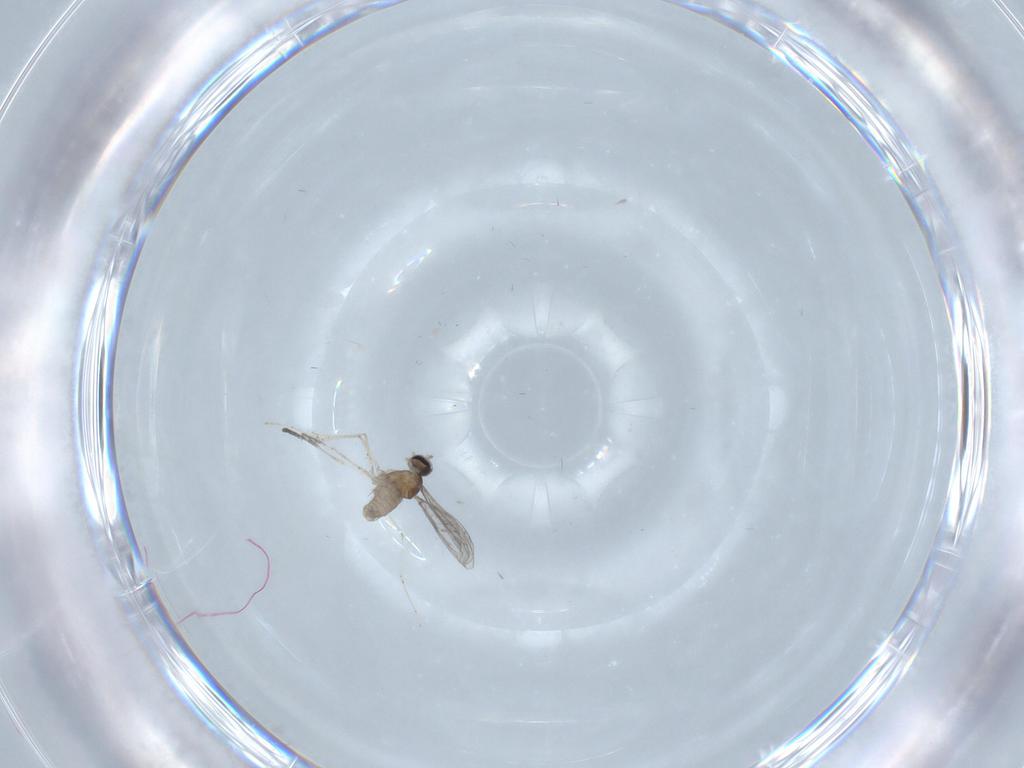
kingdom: Animalia
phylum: Arthropoda
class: Insecta
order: Diptera
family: Cecidomyiidae
